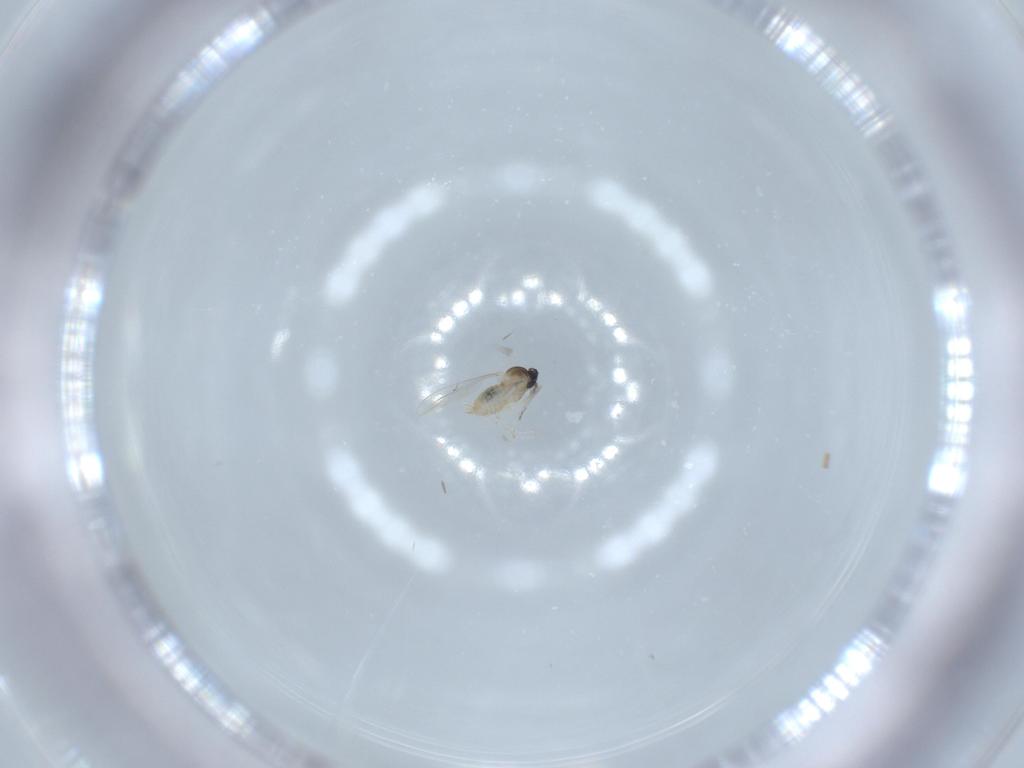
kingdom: Animalia
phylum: Arthropoda
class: Insecta
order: Diptera
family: Cecidomyiidae
